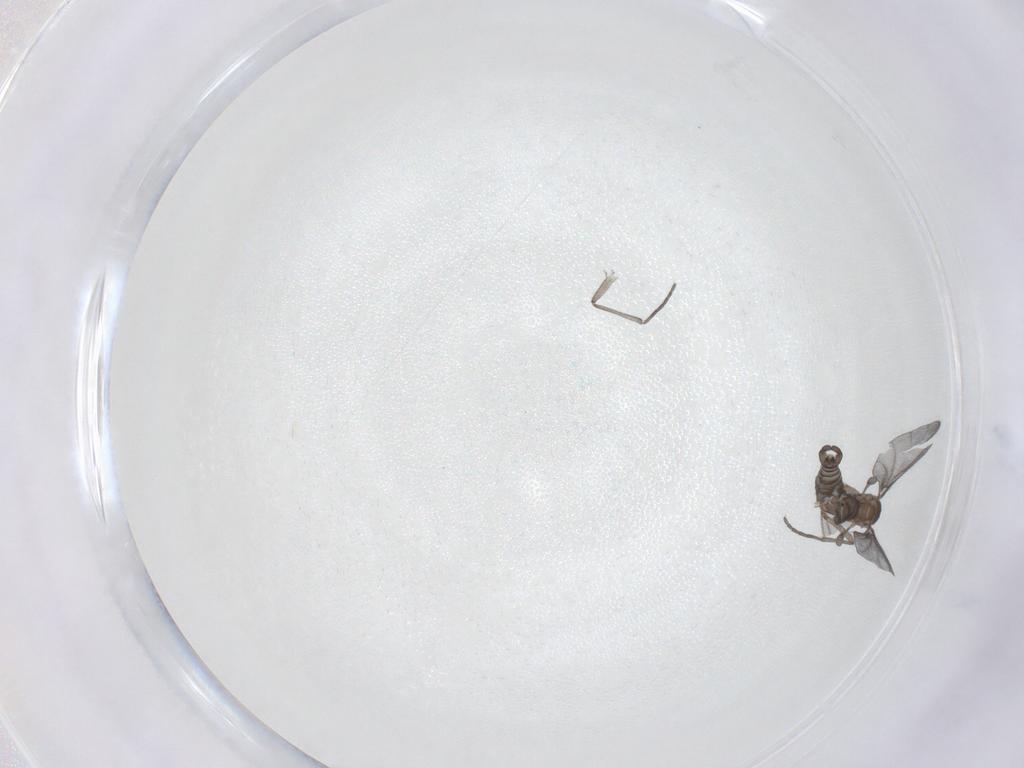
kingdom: Animalia
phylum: Arthropoda
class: Insecta
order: Diptera
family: Sciaridae
